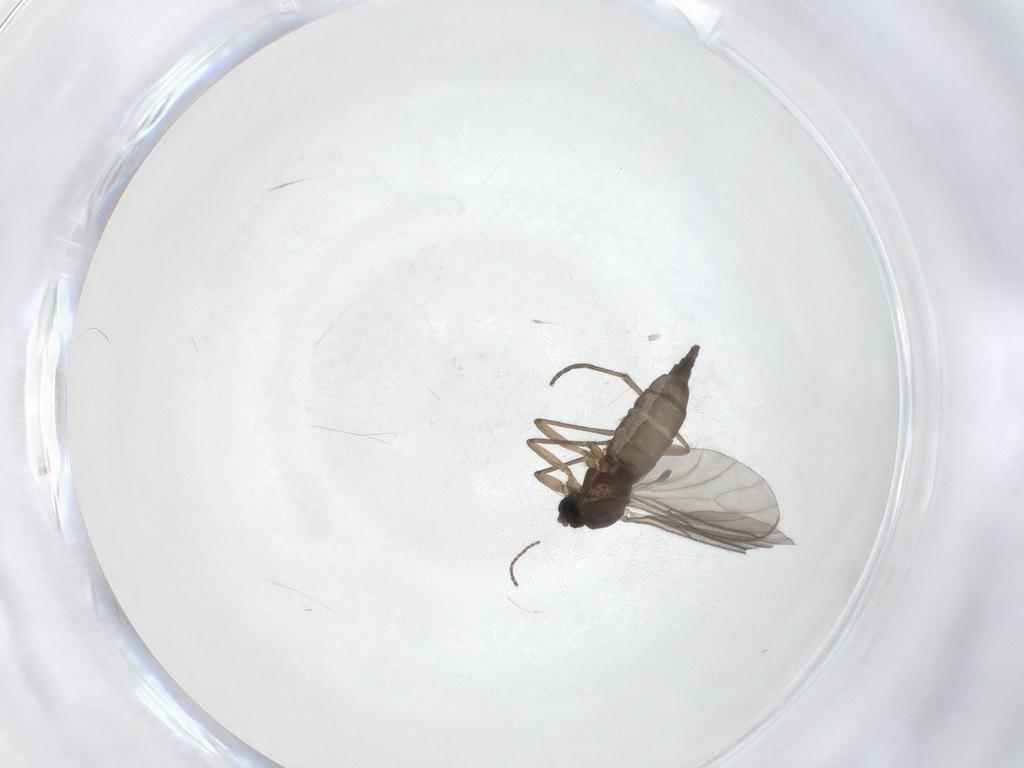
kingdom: Animalia
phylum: Arthropoda
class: Insecta
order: Diptera
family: Sciaridae
